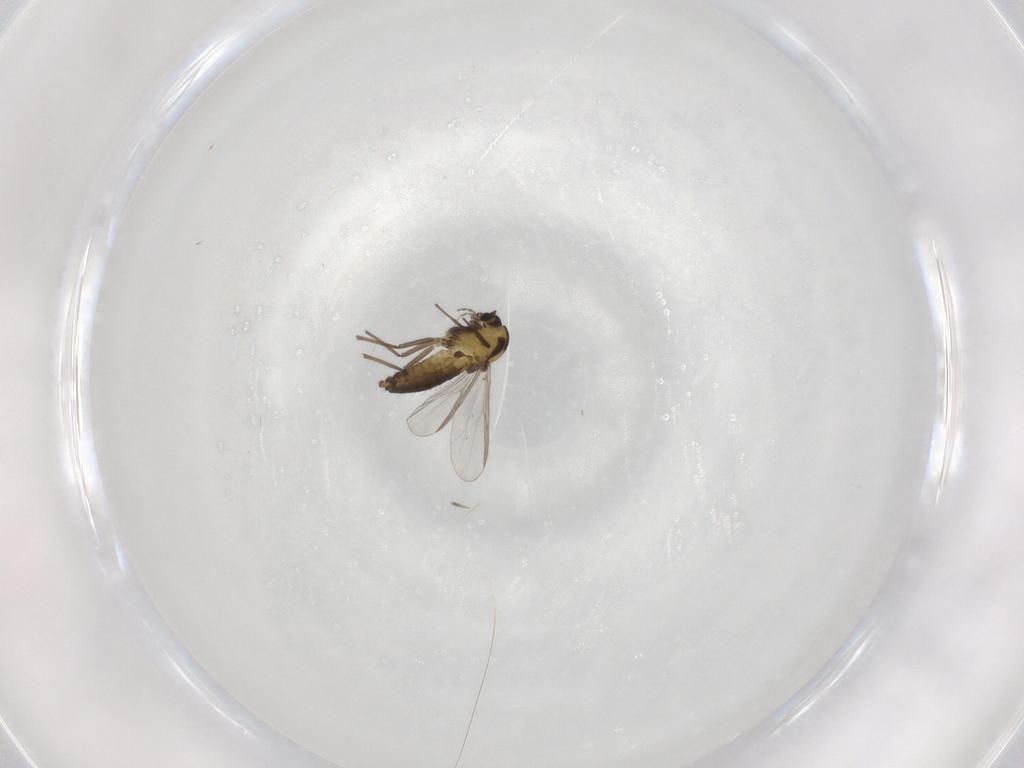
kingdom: Animalia
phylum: Arthropoda
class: Insecta
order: Diptera
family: Chironomidae
